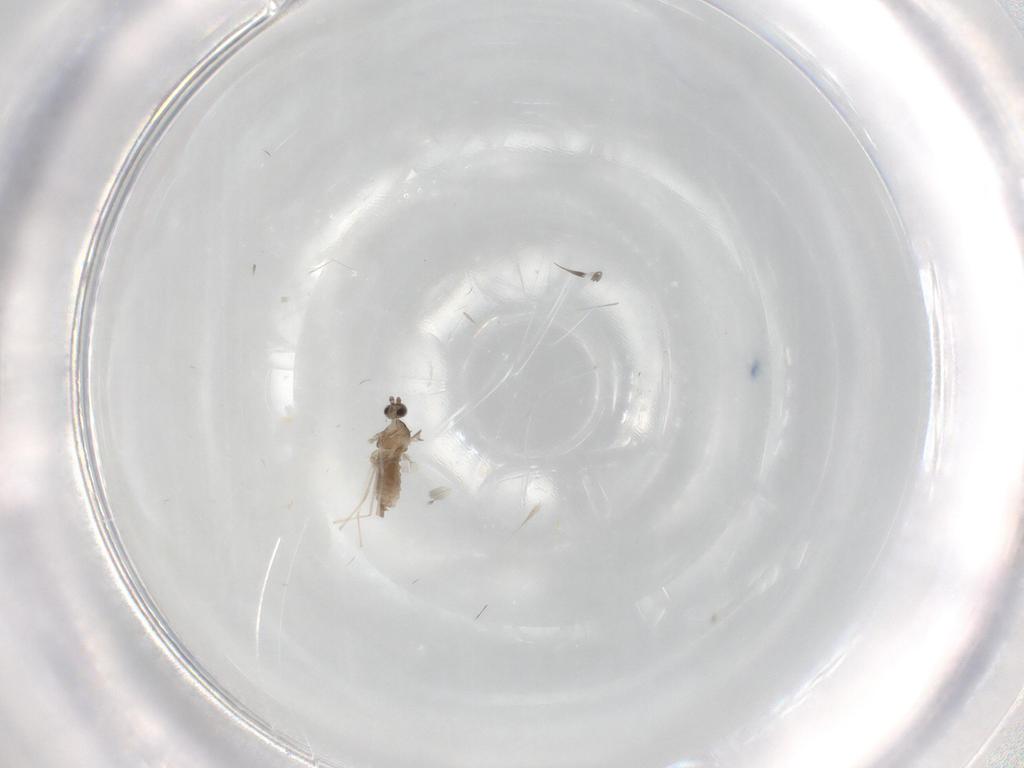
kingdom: Animalia
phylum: Arthropoda
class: Insecta
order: Diptera
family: Cecidomyiidae
